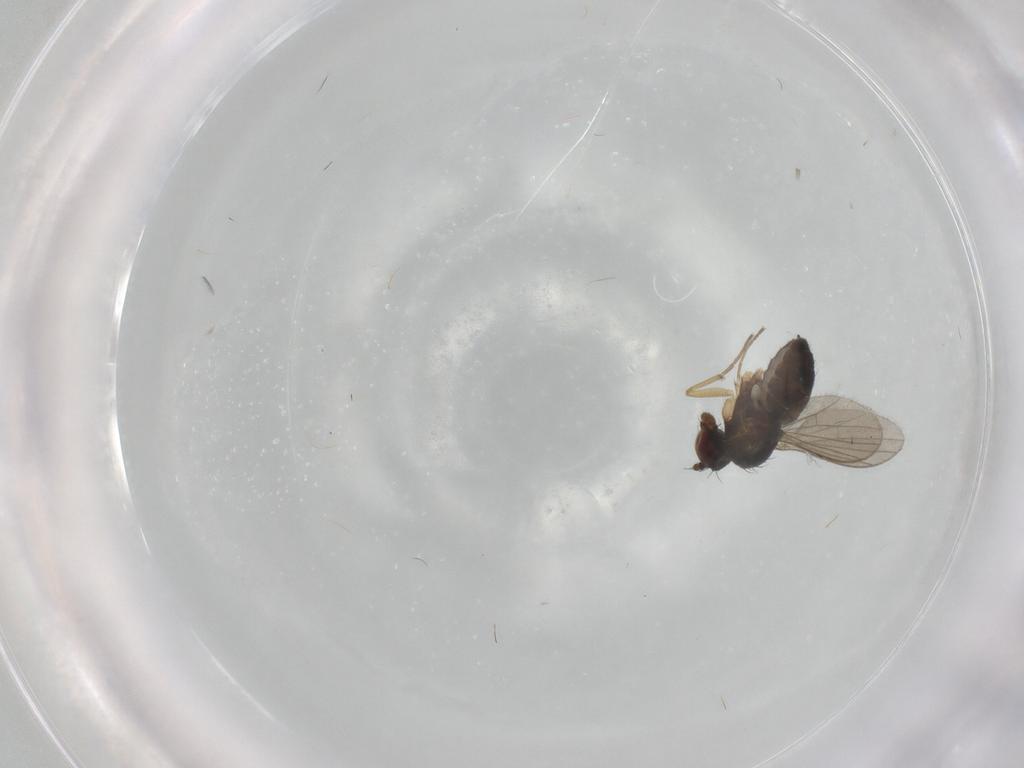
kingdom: Animalia
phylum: Arthropoda
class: Insecta
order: Diptera
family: Dolichopodidae
